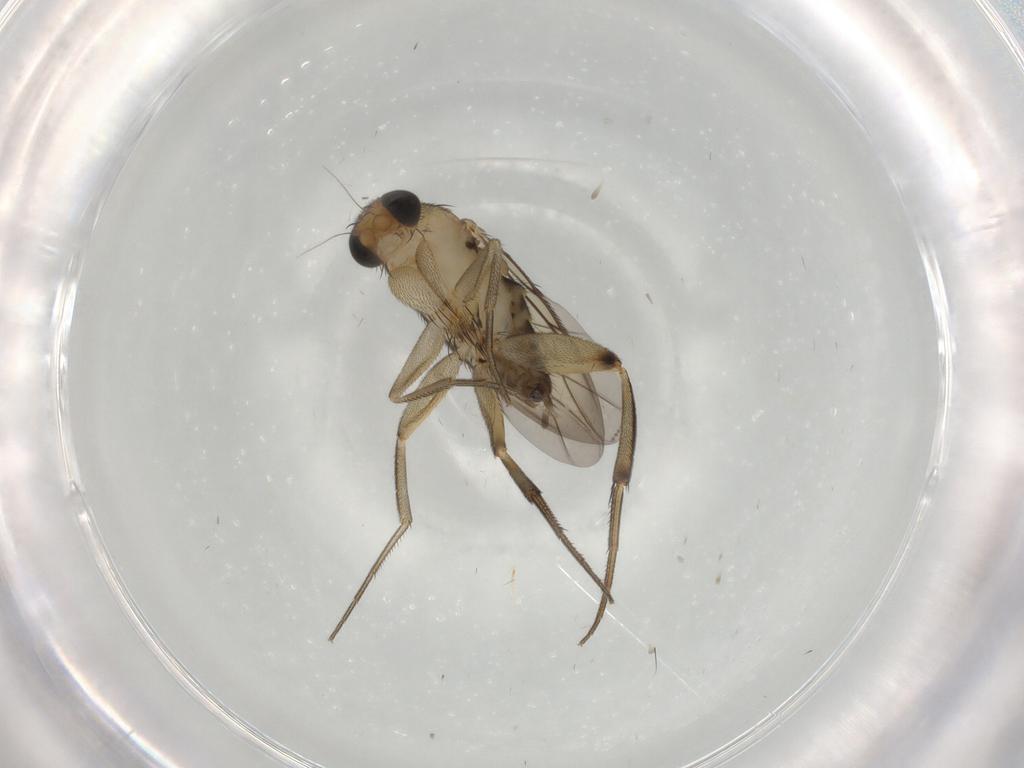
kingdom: Animalia
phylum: Arthropoda
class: Insecta
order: Diptera
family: Phoridae
